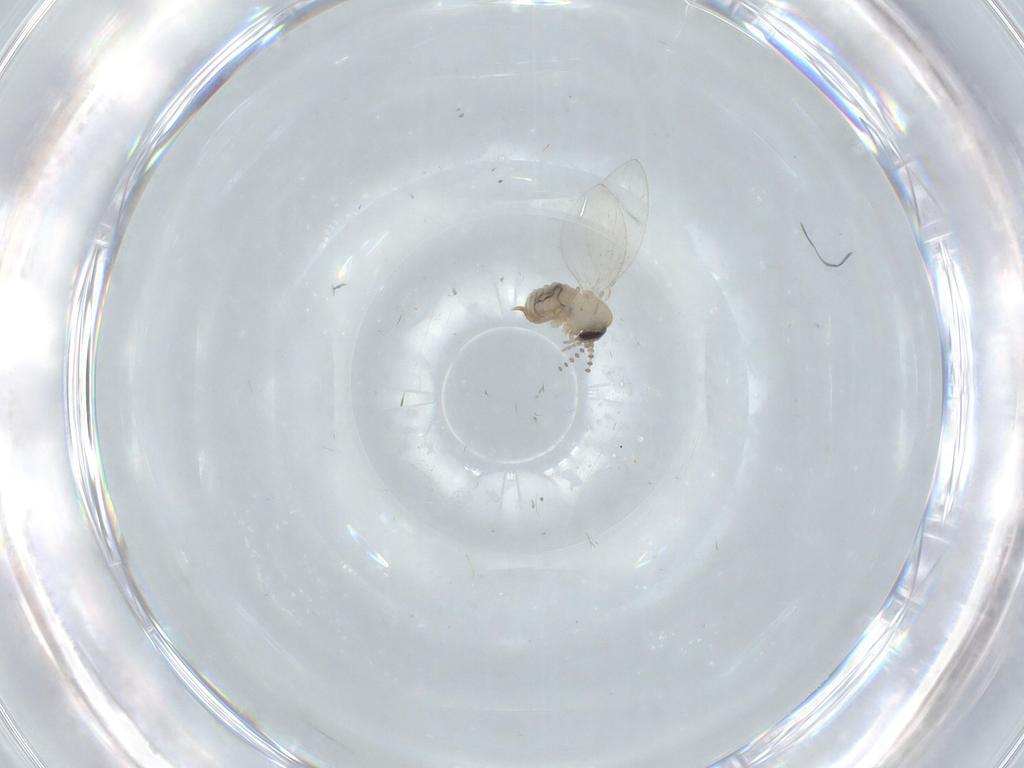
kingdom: Animalia
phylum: Arthropoda
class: Insecta
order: Diptera
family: Psychodidae
